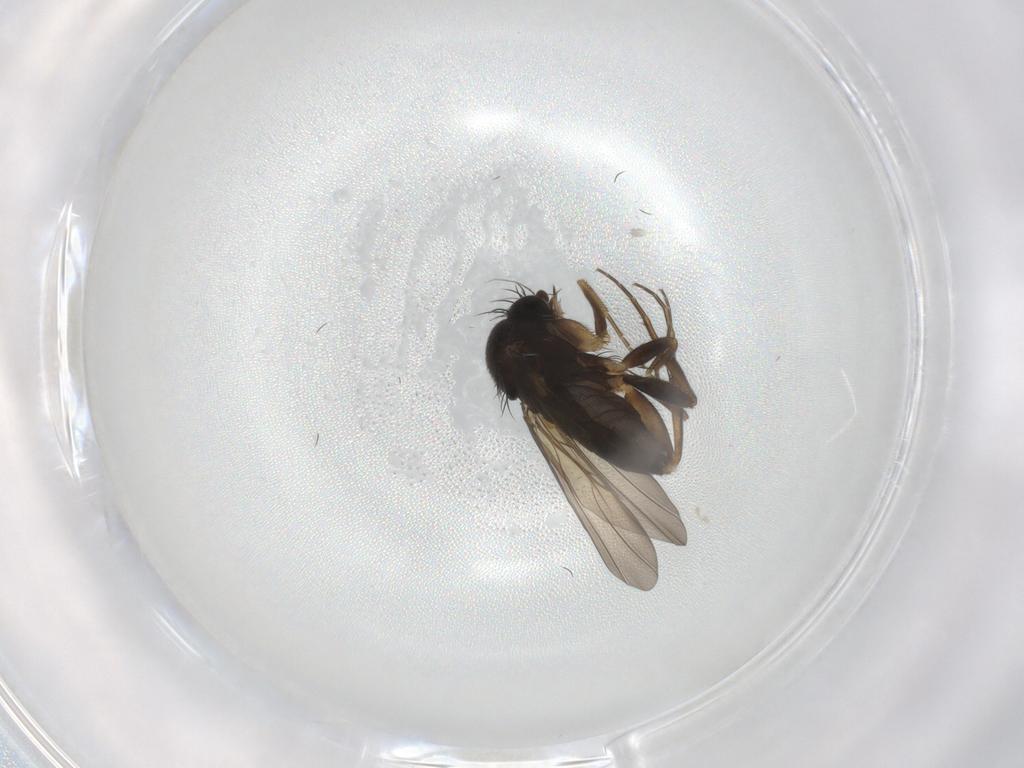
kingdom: Animalia
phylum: Arthropoda
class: Insecta
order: Diptera
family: Phoridae
